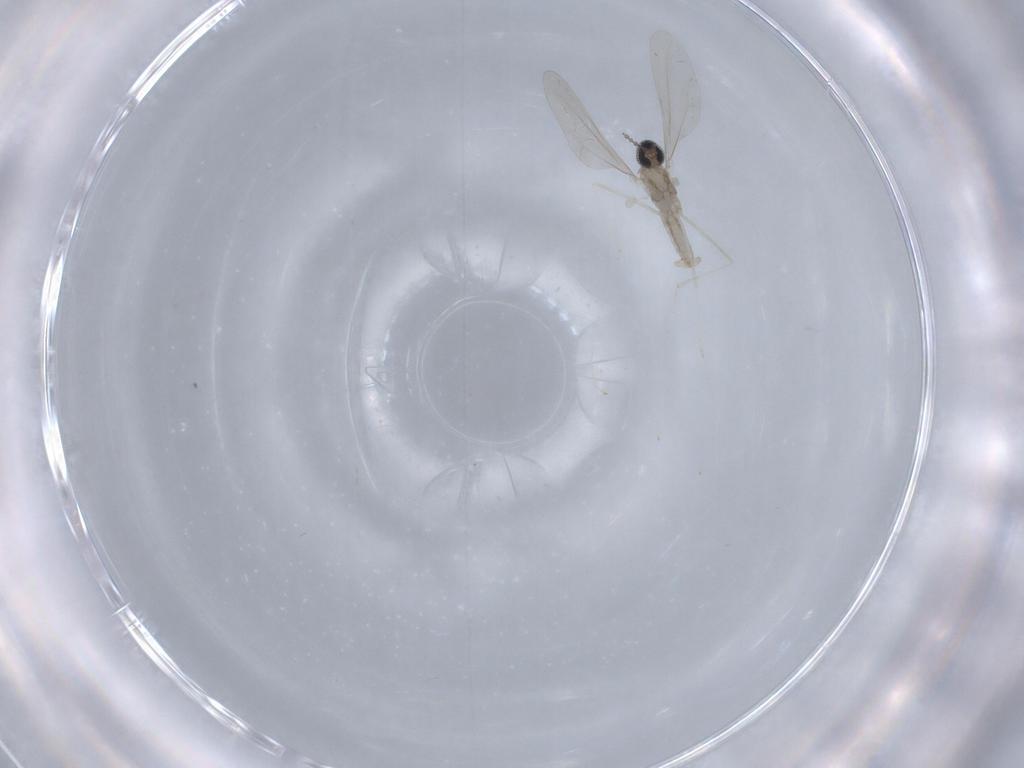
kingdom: Animalia
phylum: Arthropoda
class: Insecta
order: Diptera
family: Cecidomyiidae
